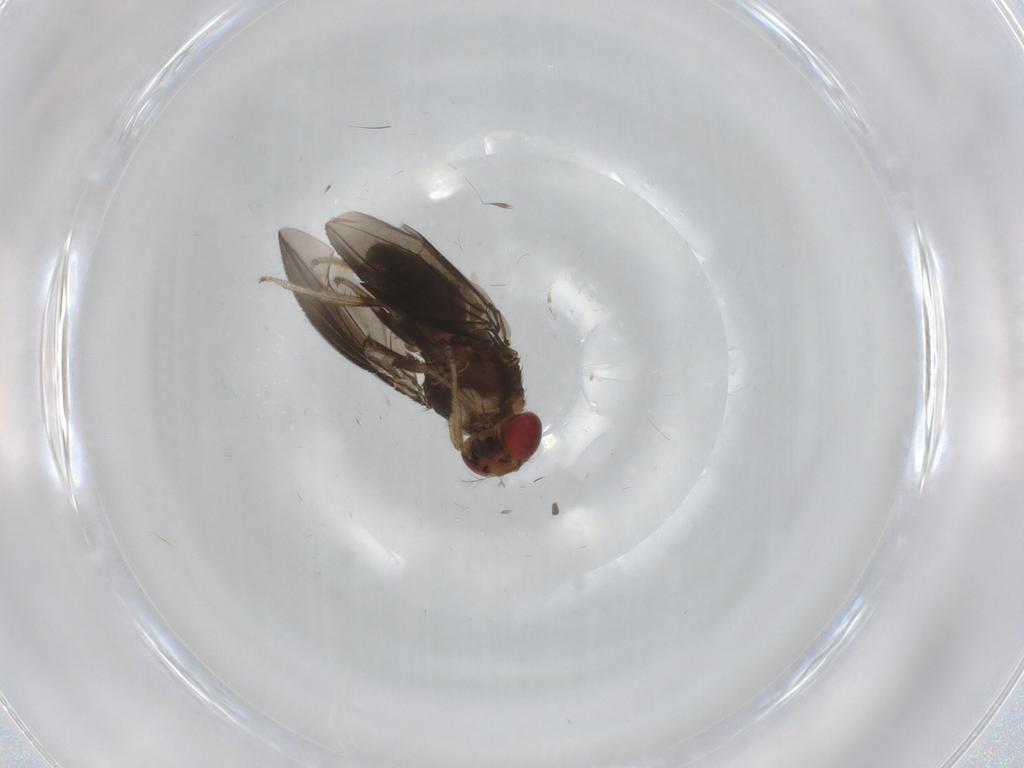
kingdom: Animalia
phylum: Arthropoda
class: Insecta
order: Diptera
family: Drosophilidae
